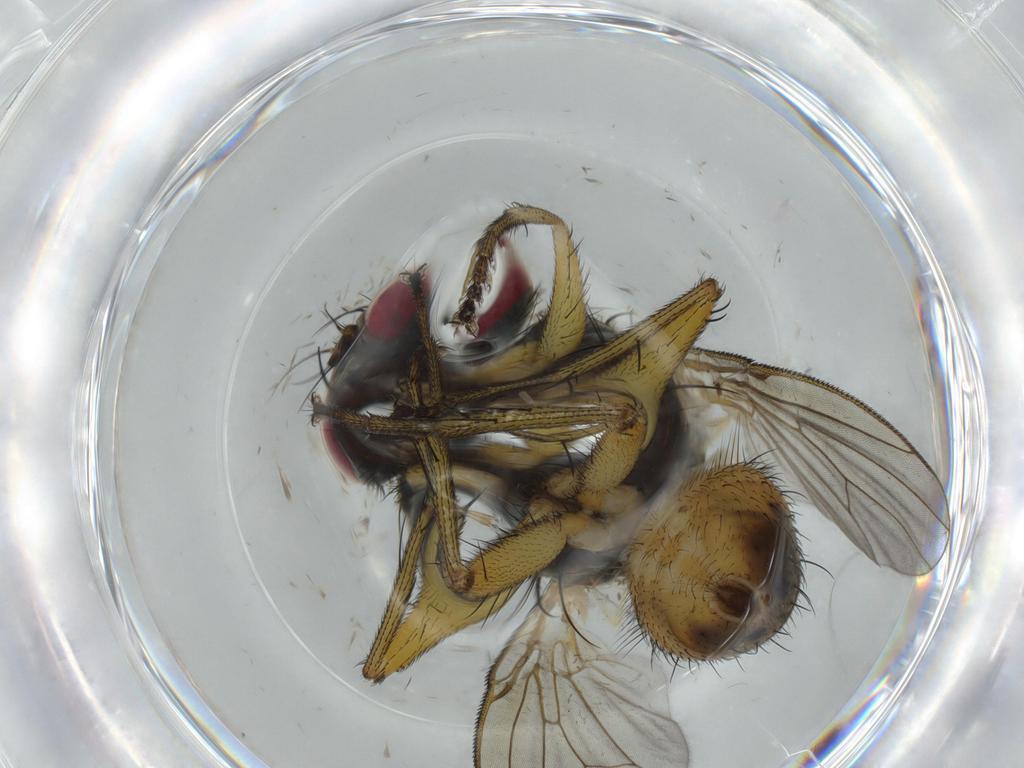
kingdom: Animalia
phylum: Arthropoda
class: Insecta
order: Diptera
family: Muscidae
